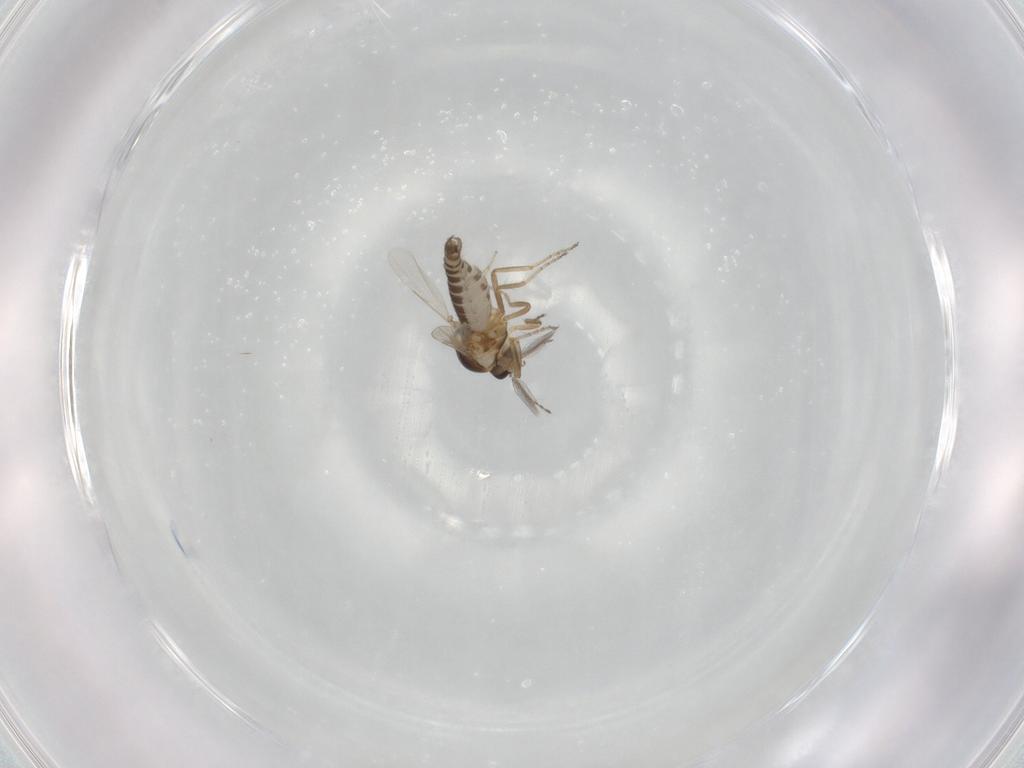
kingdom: Animalia
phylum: Arthropoda
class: Insecta
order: Diptera
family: Chironomidae
